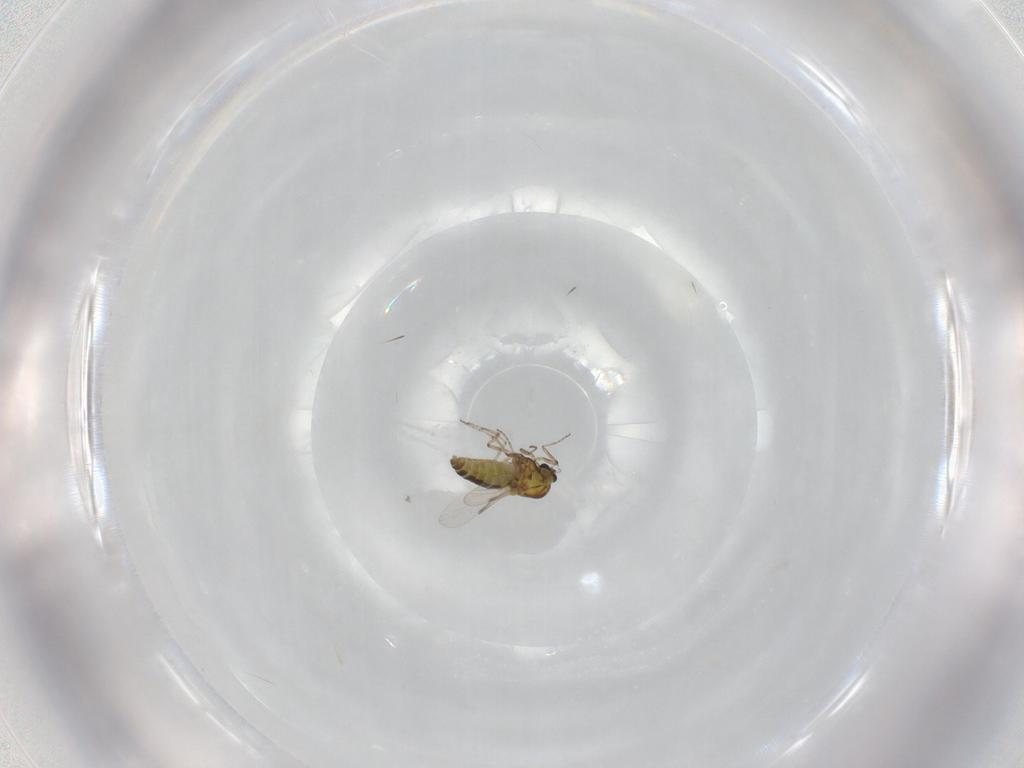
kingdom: Animalia
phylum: Arthropoda
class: Insecta
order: Diptera
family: Ceratopogonidae
